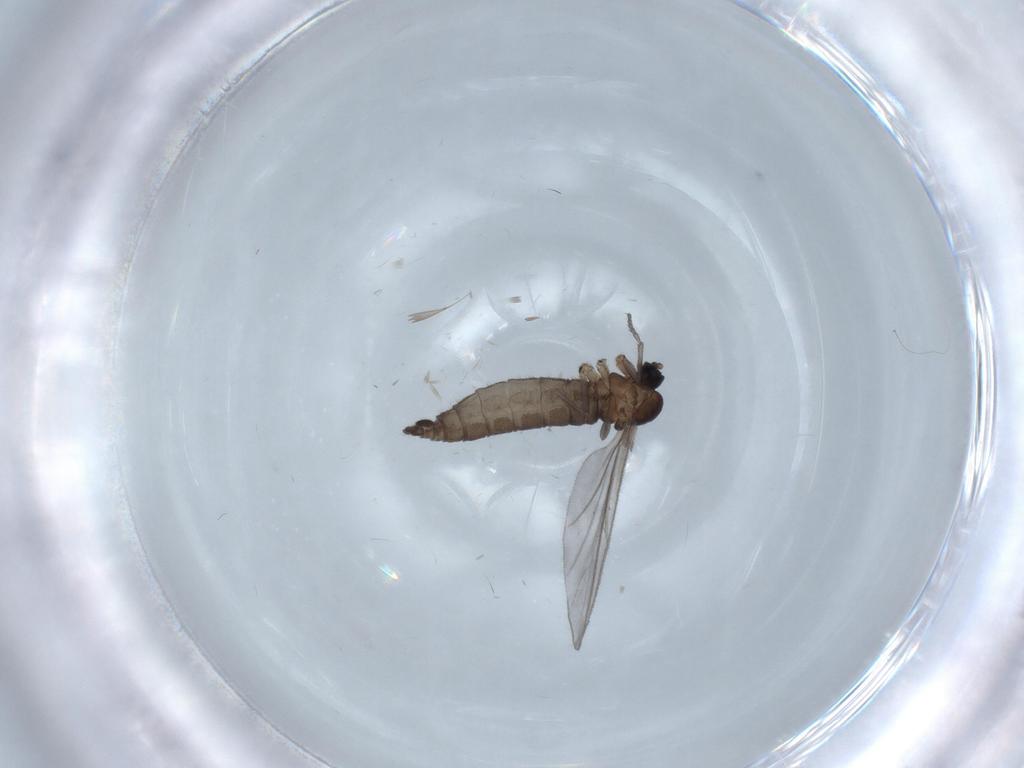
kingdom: Animalia
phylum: Arthropoda
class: Insecta
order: Diptera
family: Sciaridae
